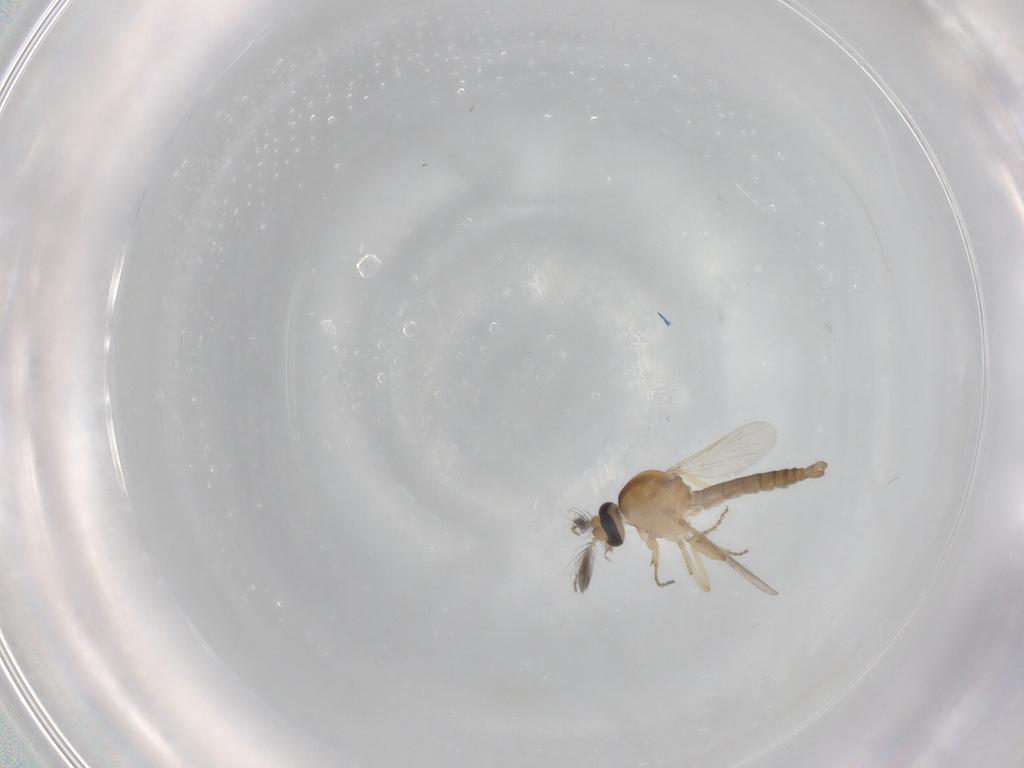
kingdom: Animalia
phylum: Arthropoda
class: Insecta
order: Diptera
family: Ceratopogonidae
